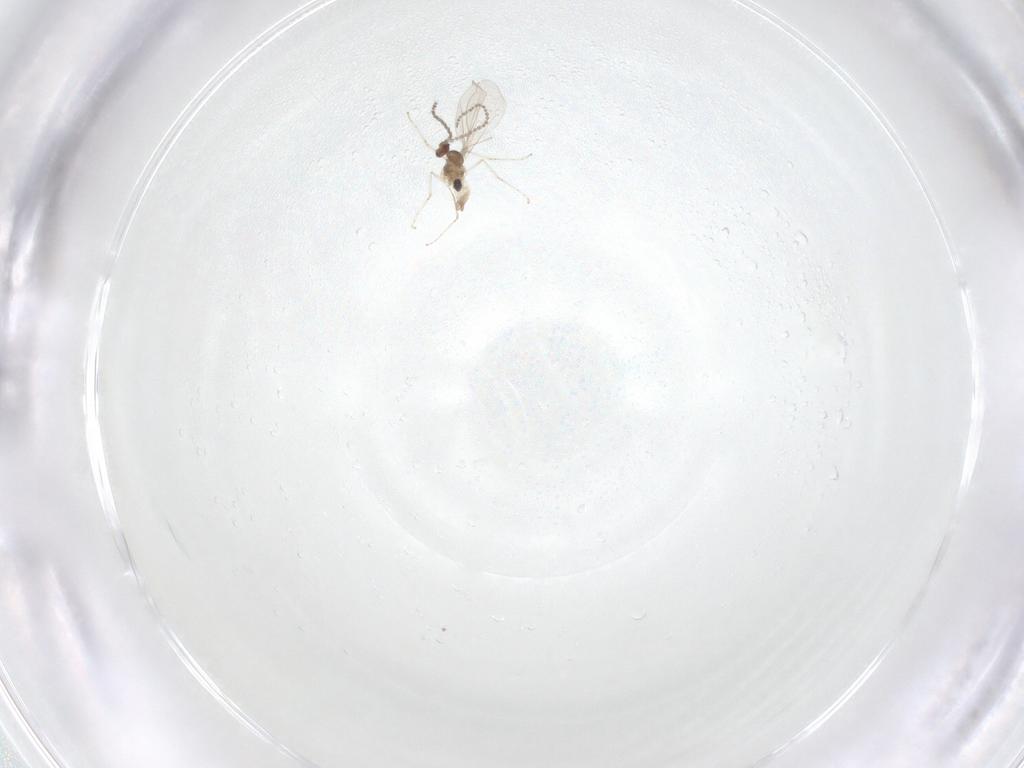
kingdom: Animalia
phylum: Arthropoda
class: Insecta
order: Diptera
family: Cecidomyiidae
